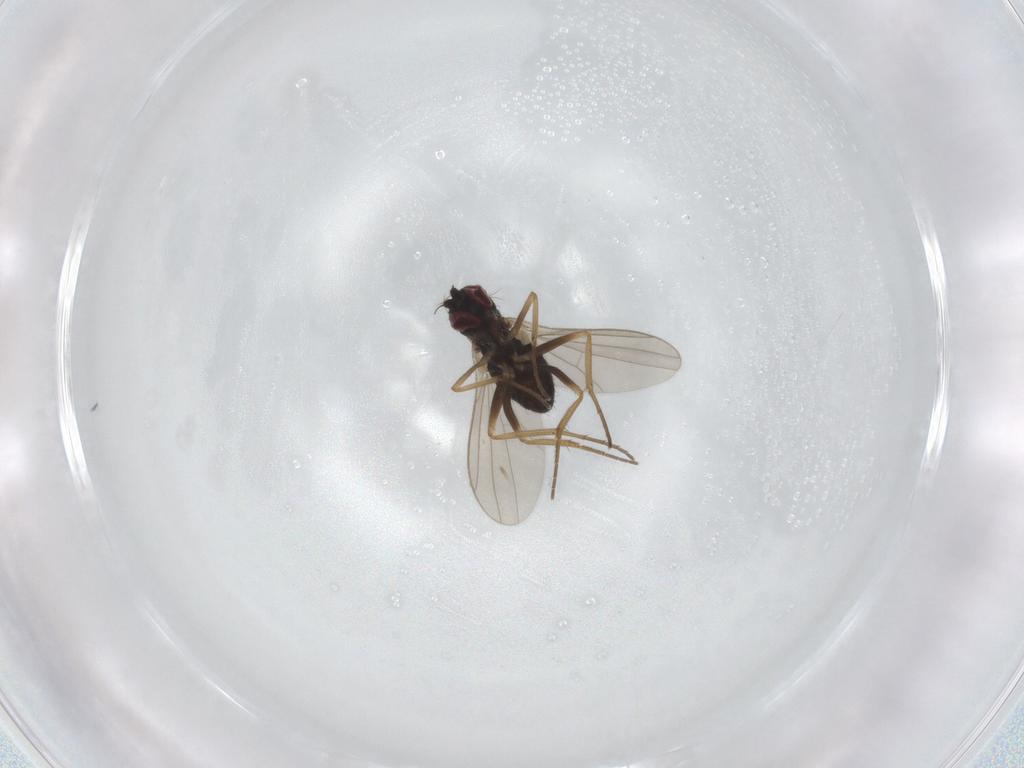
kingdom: Animalia
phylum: Arthropoda
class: Insecta
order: Diptera
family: Dolichopodidae
